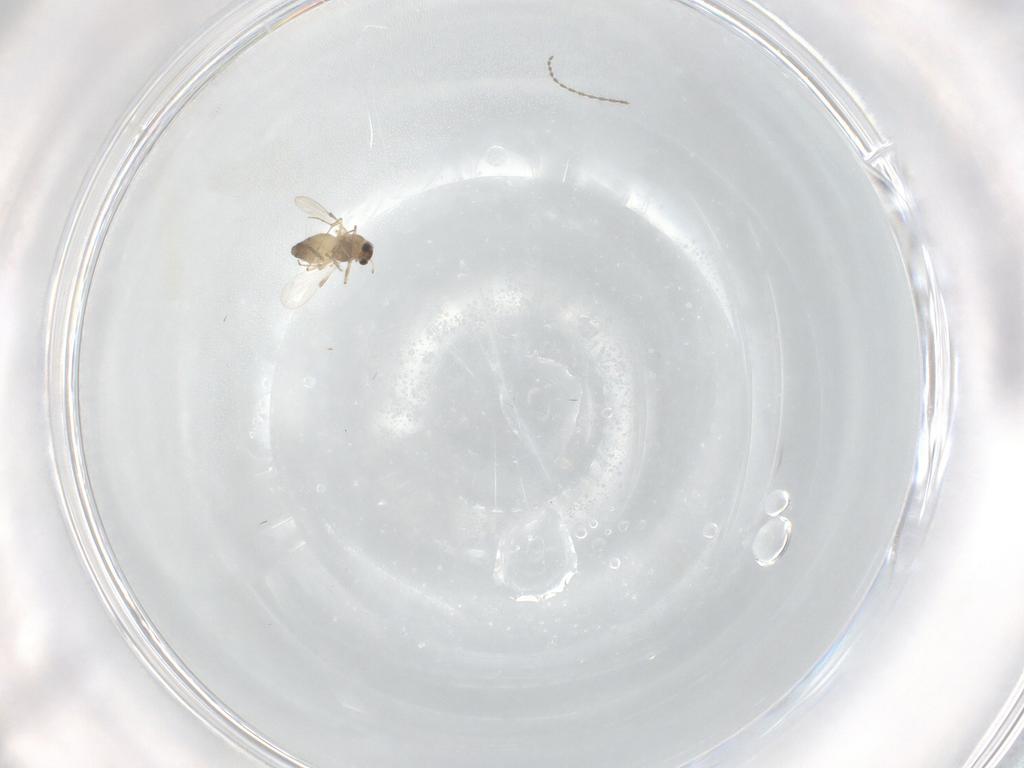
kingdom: Animalia
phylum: Arthropoda
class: Insecta
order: Diptera
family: Chironomidae
